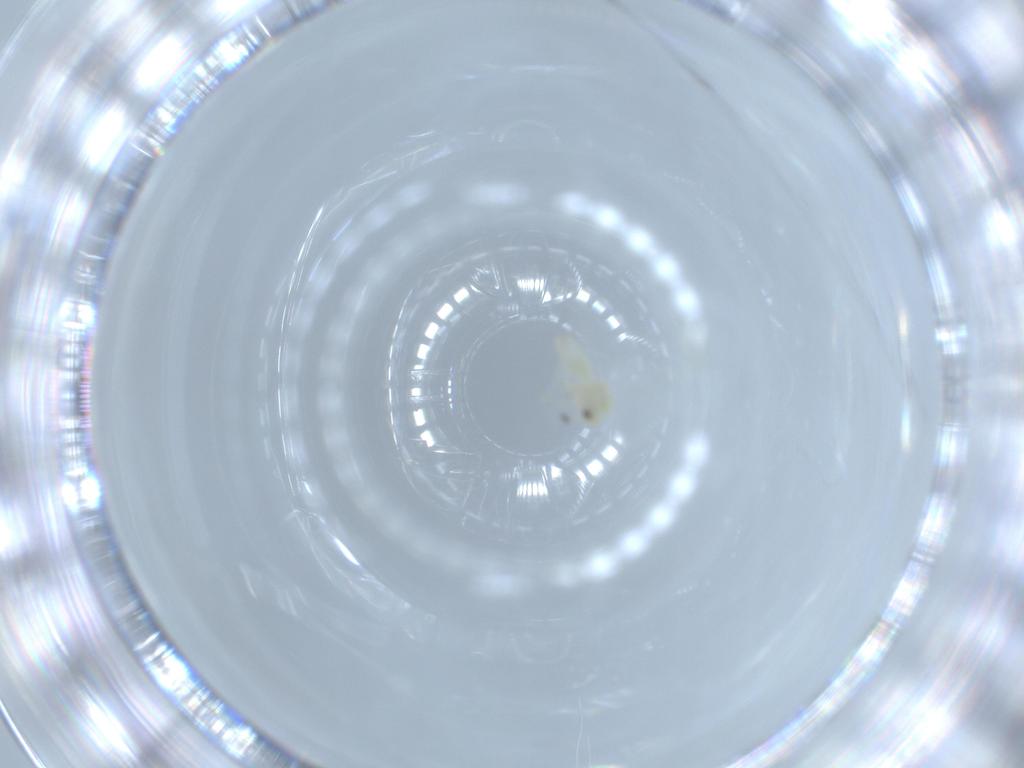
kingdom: Animalia
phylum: Arthropoda
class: Insecta
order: Hemiptera
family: Aleyrodidae
